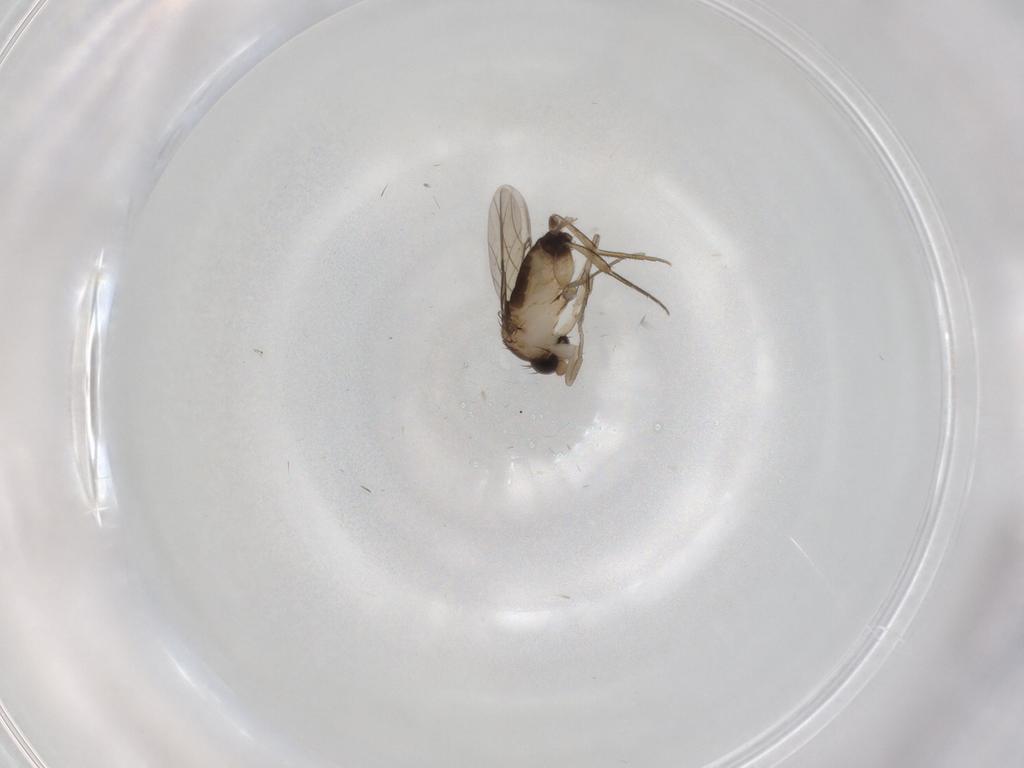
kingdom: Animalia
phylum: Arthropoda
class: Insecta
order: Diptera
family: Phoridae
